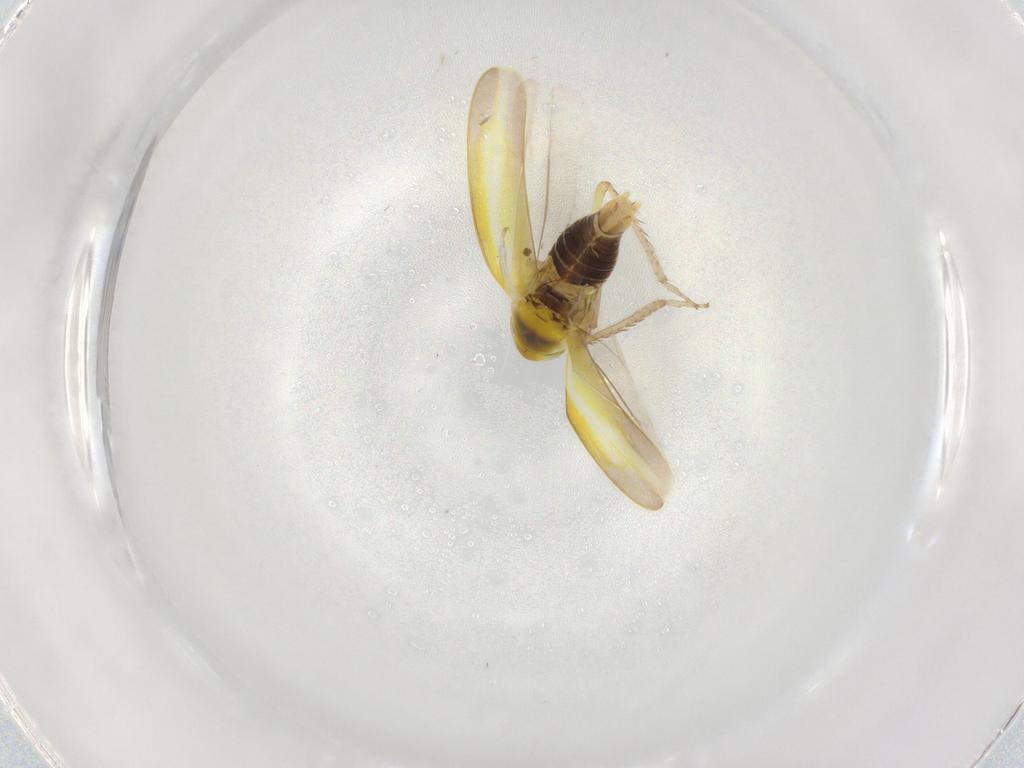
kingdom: Animalia
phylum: Arthropoda
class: Insecta
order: Hemiptera
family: Cicadellidae
